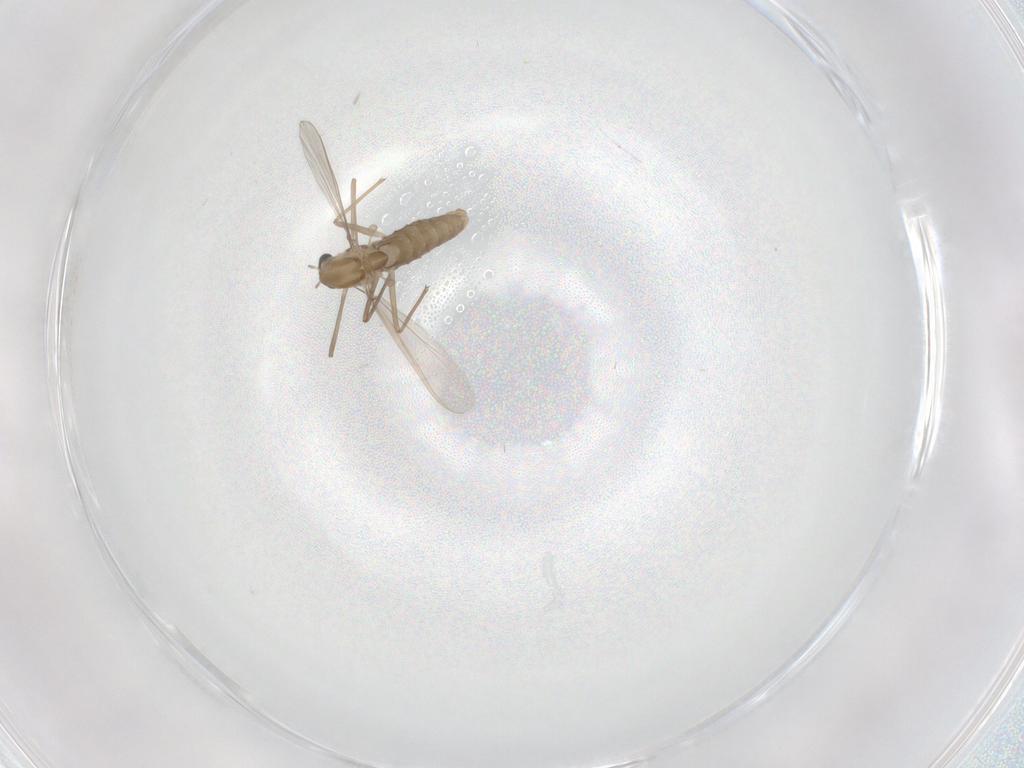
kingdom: Animalia
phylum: Arthropoda
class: Insecta
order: Diptera
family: Chironomidae
